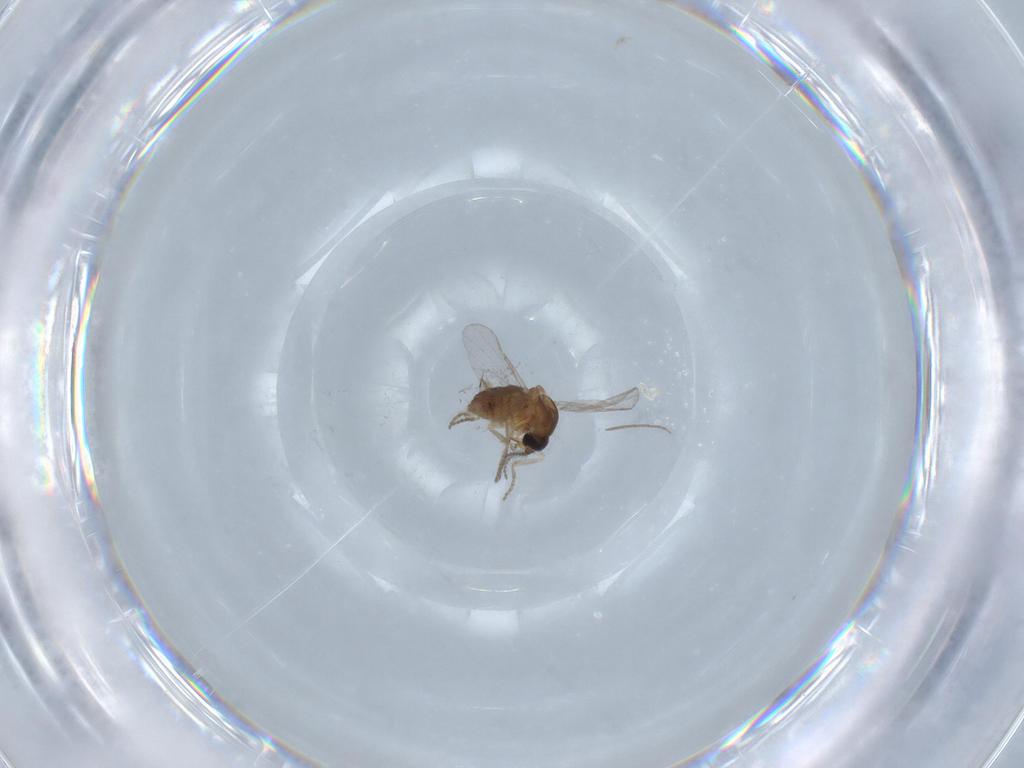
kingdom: Animalia
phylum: Arthropoda
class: Insecta
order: Diptera
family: Chironomidae
